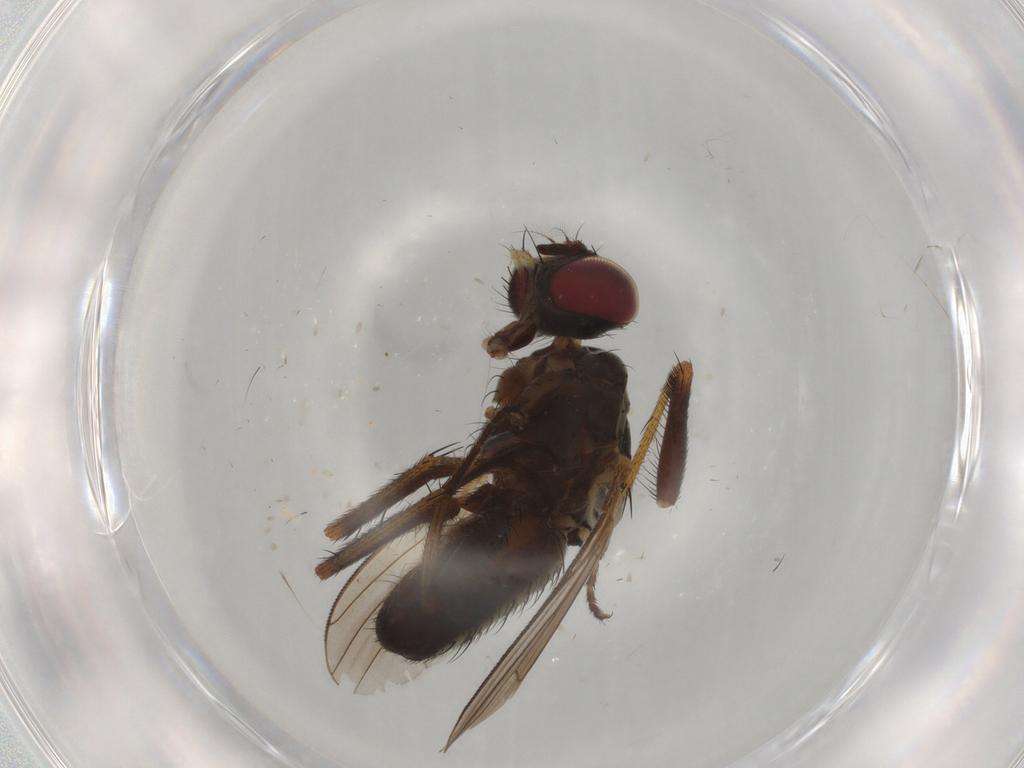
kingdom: Animalia
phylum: Arthropoda
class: Insecta
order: Diptera
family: Muscidae
